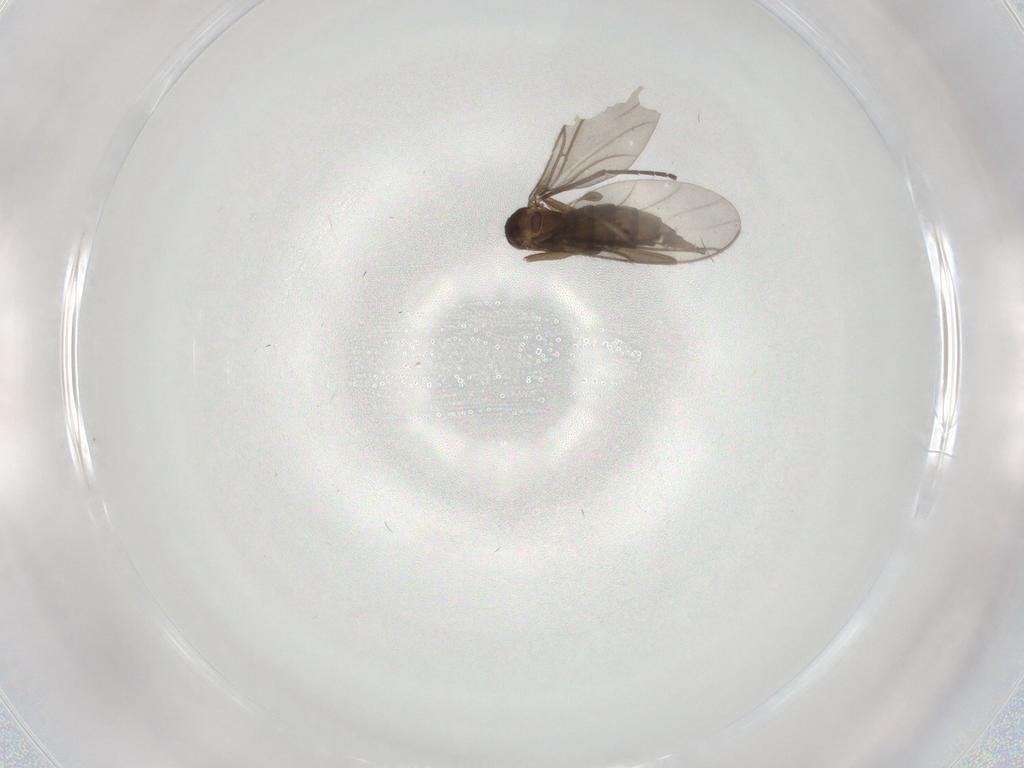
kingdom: Animalia
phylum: Arthropoda
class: Insecta
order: Diptera
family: Sciaridae
